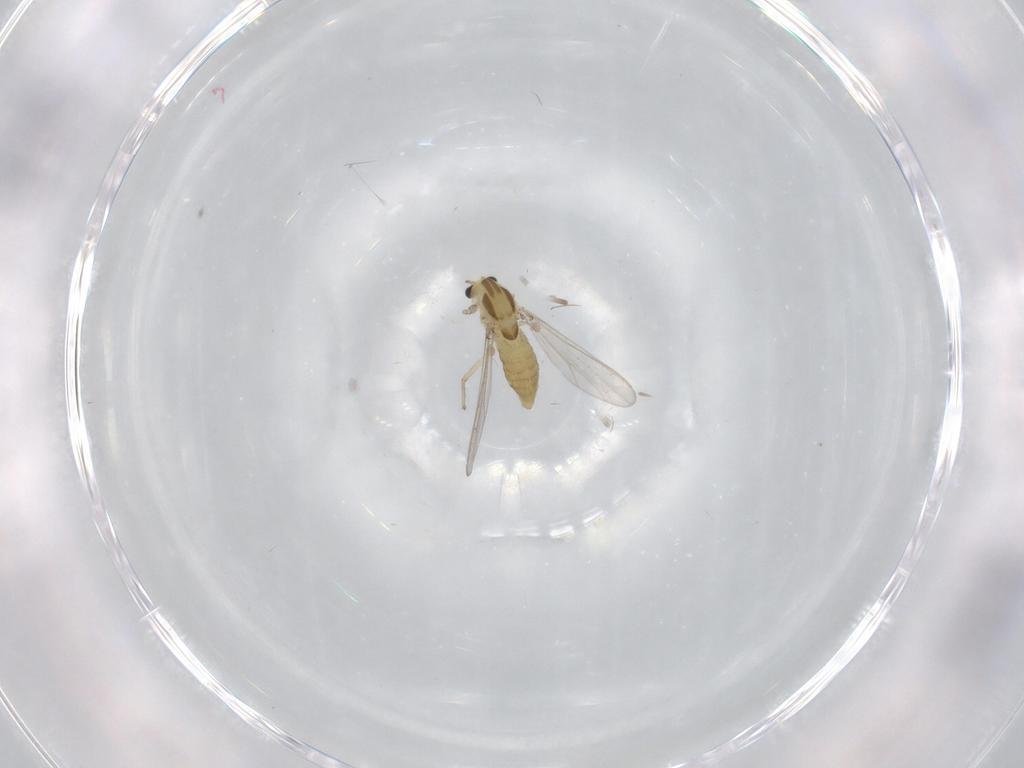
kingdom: Animalia
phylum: Arthropoda
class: Insecta
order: Diptera
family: Chironomidae
